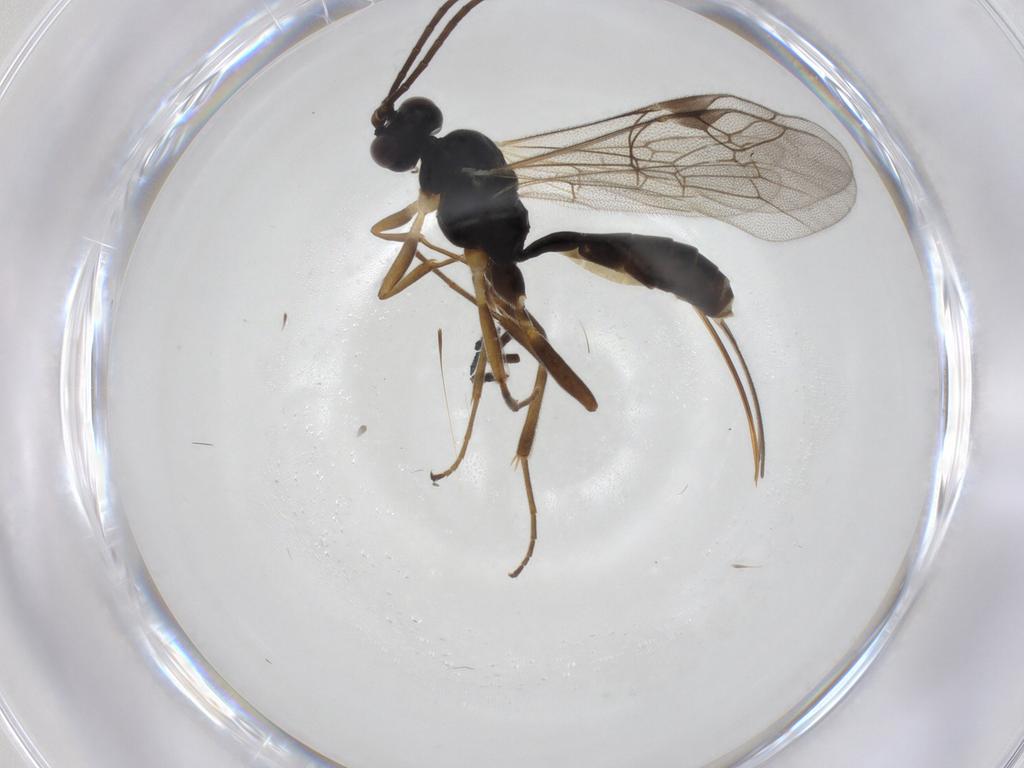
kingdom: Animalia
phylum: Arthropoda
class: Insecta
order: Hymenoptera
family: Ichneumonidae
